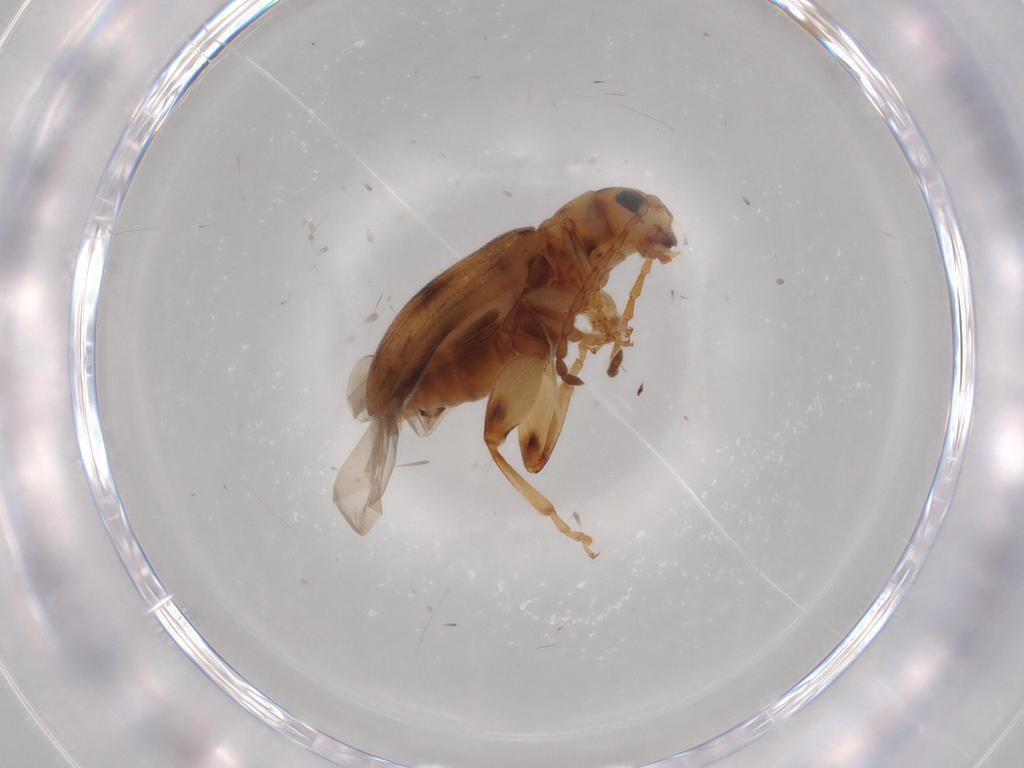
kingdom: Animalia
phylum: Arthropoda
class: Insecta
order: Coleoptera
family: Chrysomelidae
